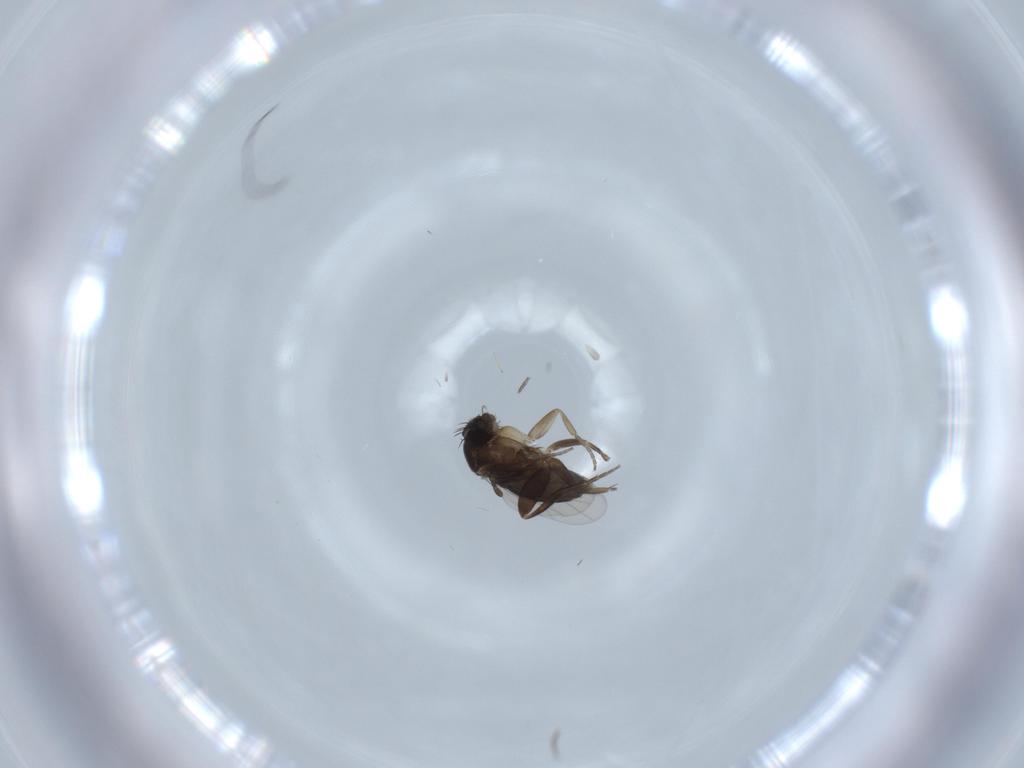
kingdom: Animalia
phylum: Arthropoda
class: Insecta
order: Diptera
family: Phoridae
